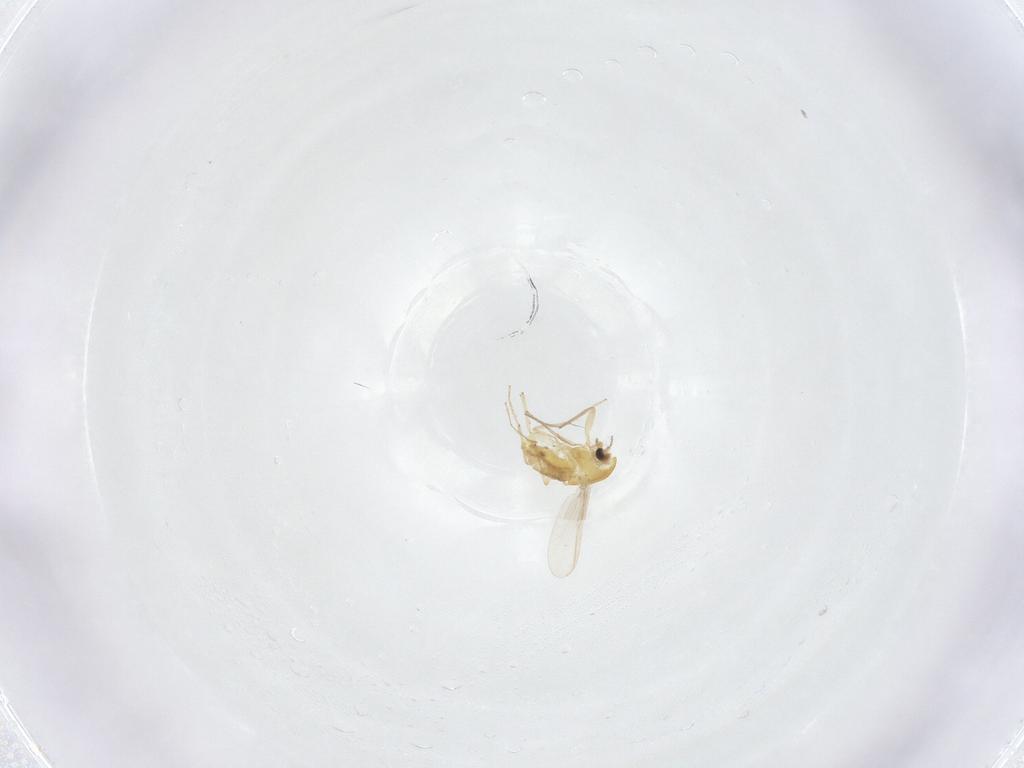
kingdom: Animalia
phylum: Arthropoda
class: Insecta
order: Diptera
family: Chironomidae
